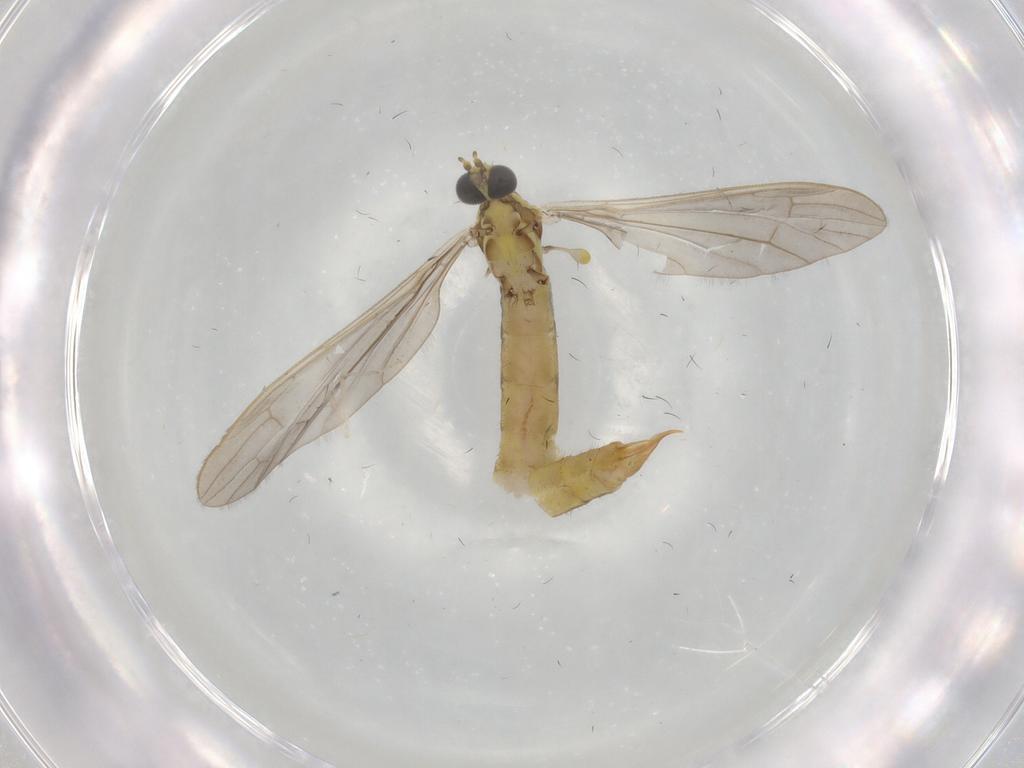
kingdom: Animalia
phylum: Arthropoda
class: Insecta
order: Diptera
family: Limoniidae
